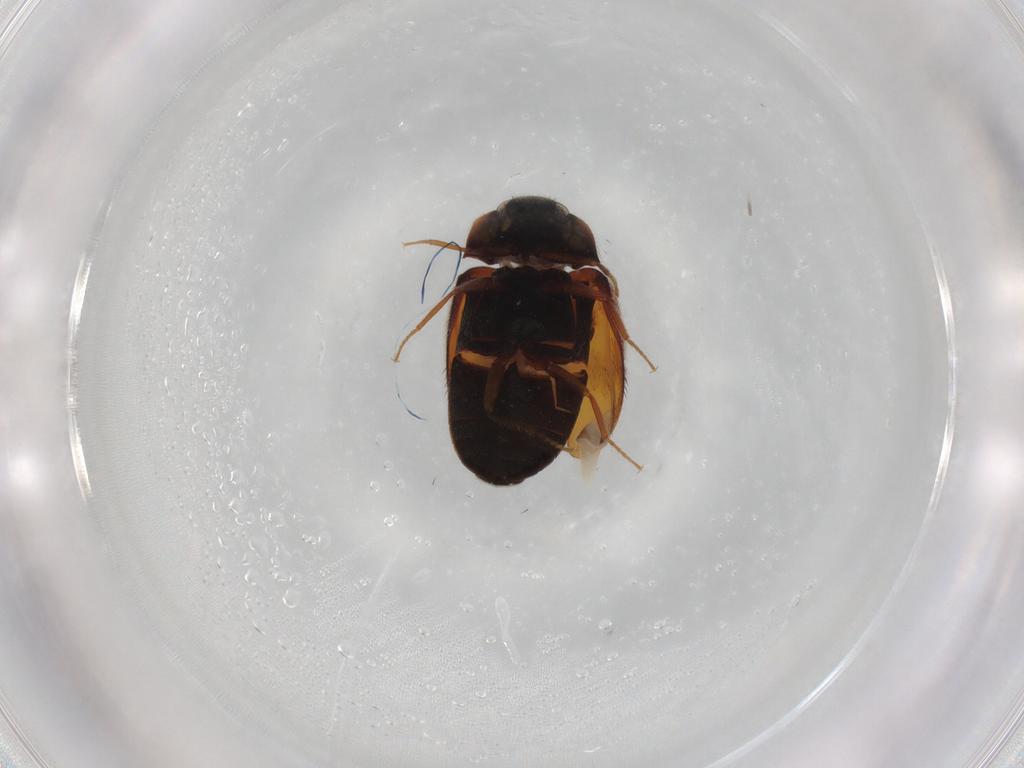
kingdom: Animalia
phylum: Arthropoda
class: Insecta
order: Coleoptera
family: Dermestidae
